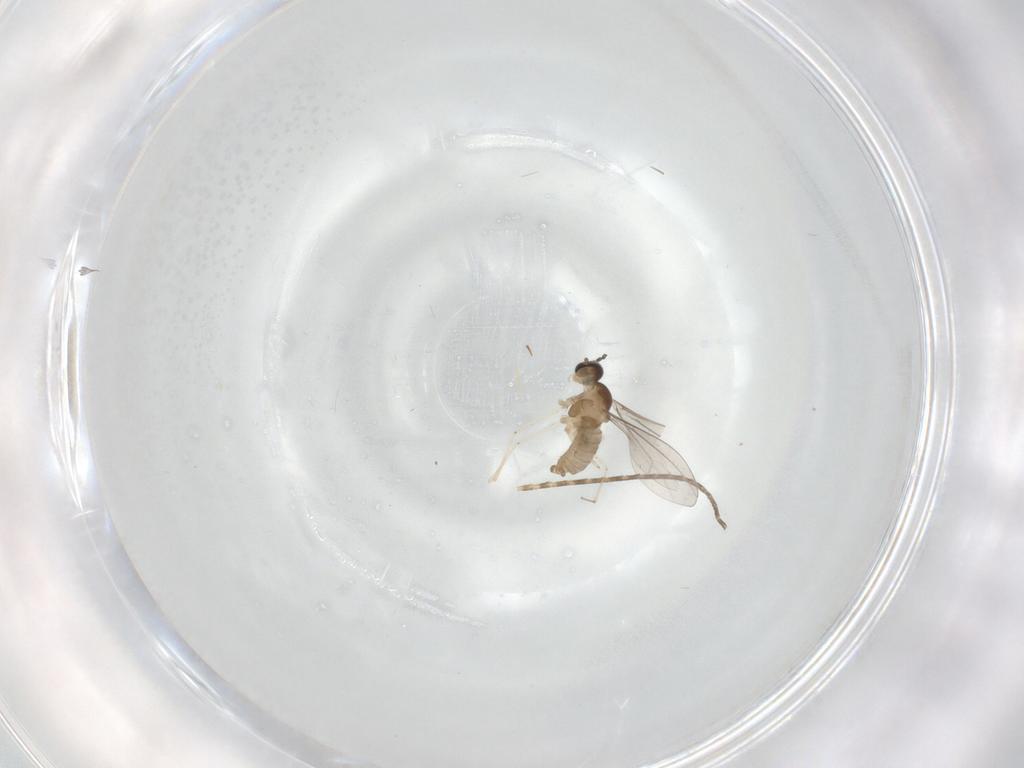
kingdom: Animalia
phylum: Arthropoda
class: Insecta
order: Diptera
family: Cecidomyiidae
